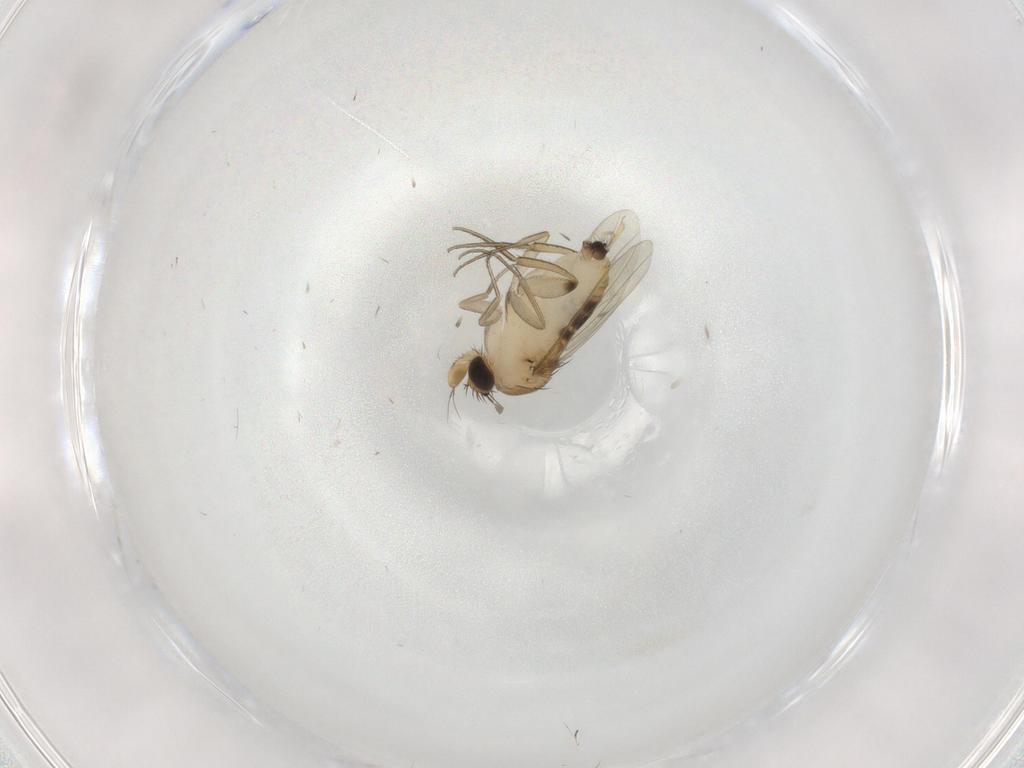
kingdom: Animalia
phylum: Arthropoda
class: Insecta
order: Diptera
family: Phoridae
